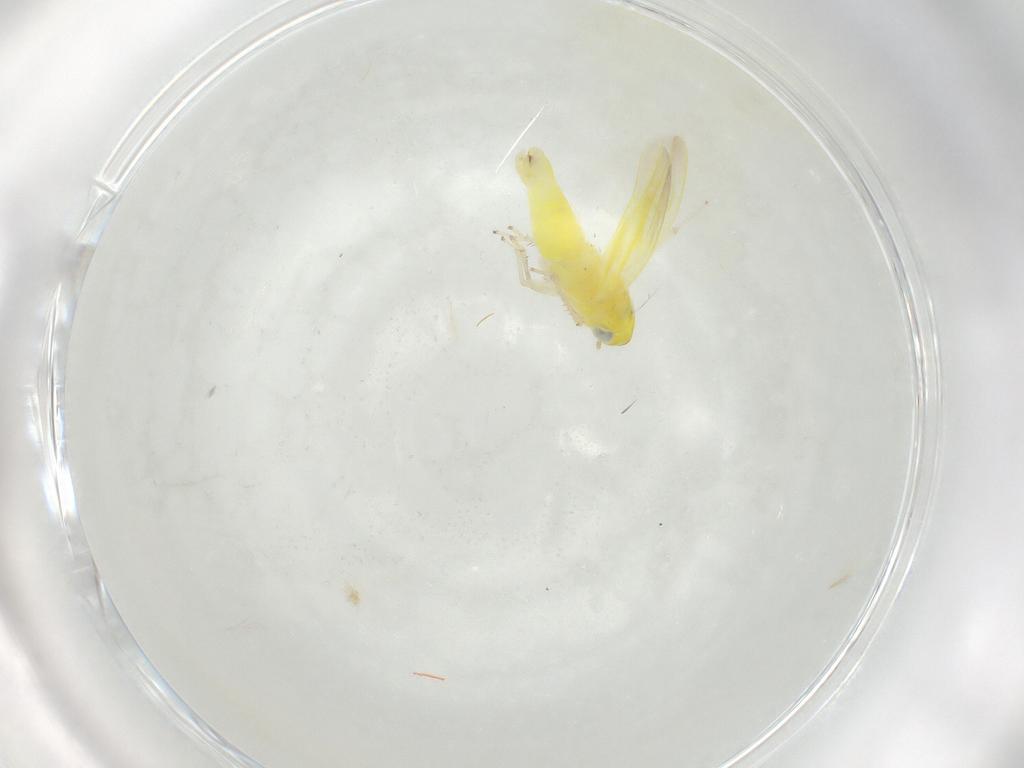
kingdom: Animalia
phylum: Arthropoda
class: Insecta
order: Hemiptera
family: Cicadellidae
